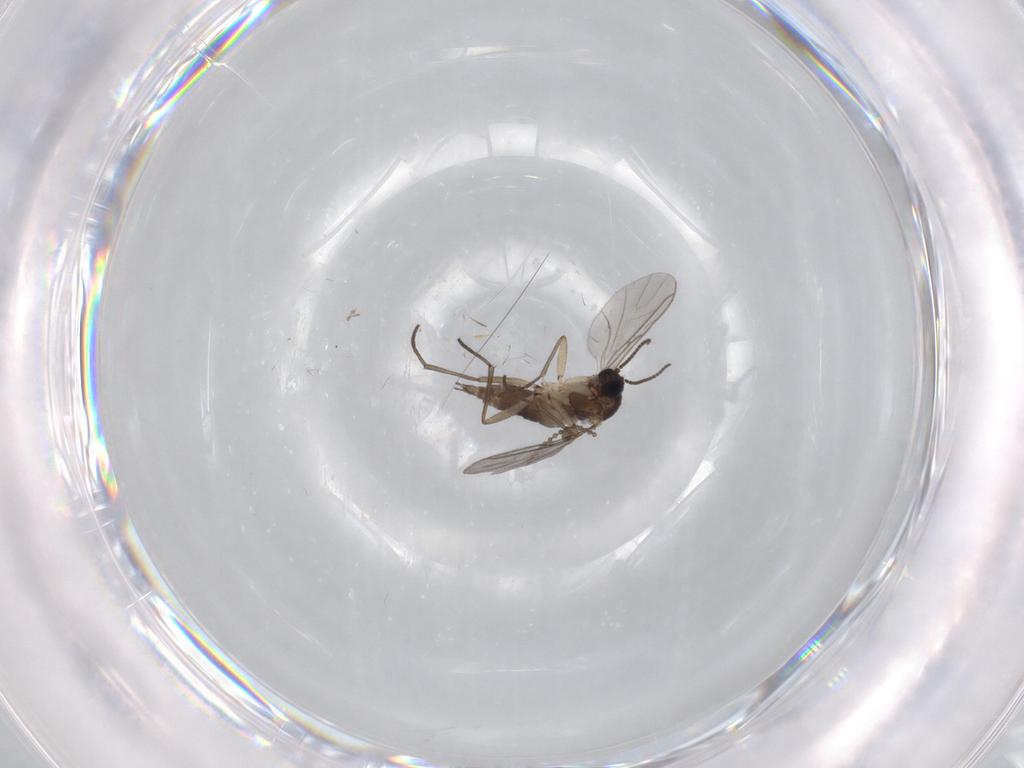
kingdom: Animalia
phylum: Arthropoda
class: Insecta
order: Diptera
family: Sciaridae
